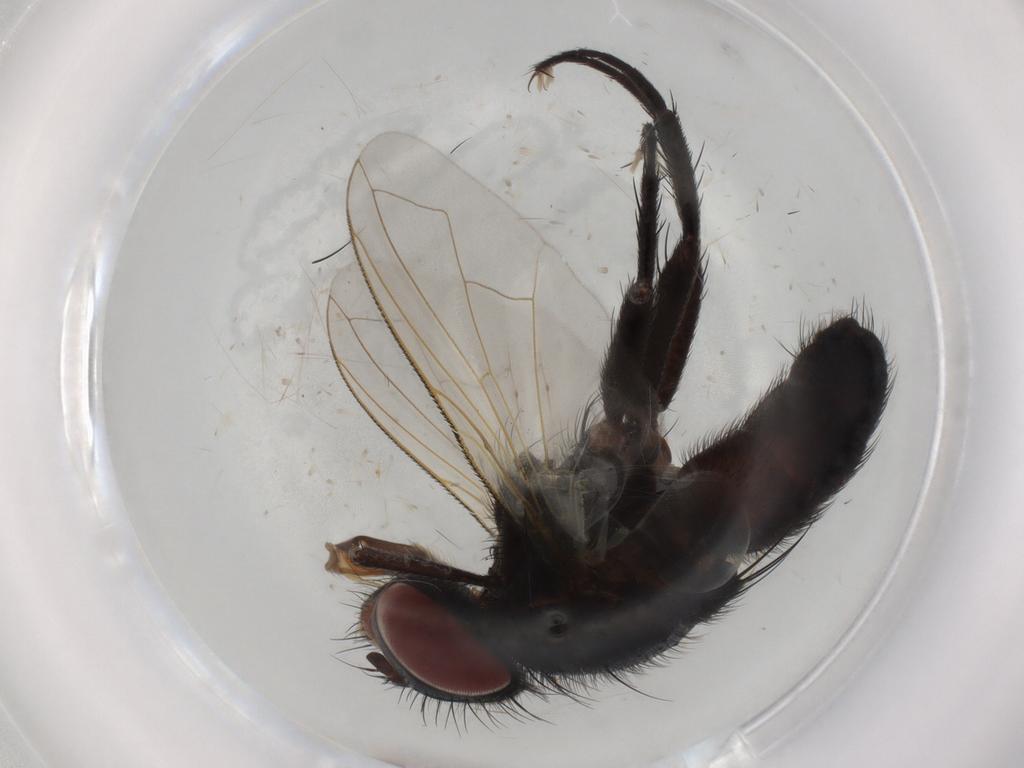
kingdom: Animalia
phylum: Arthropoda
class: Insecta
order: Diptera
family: Sciaridae
